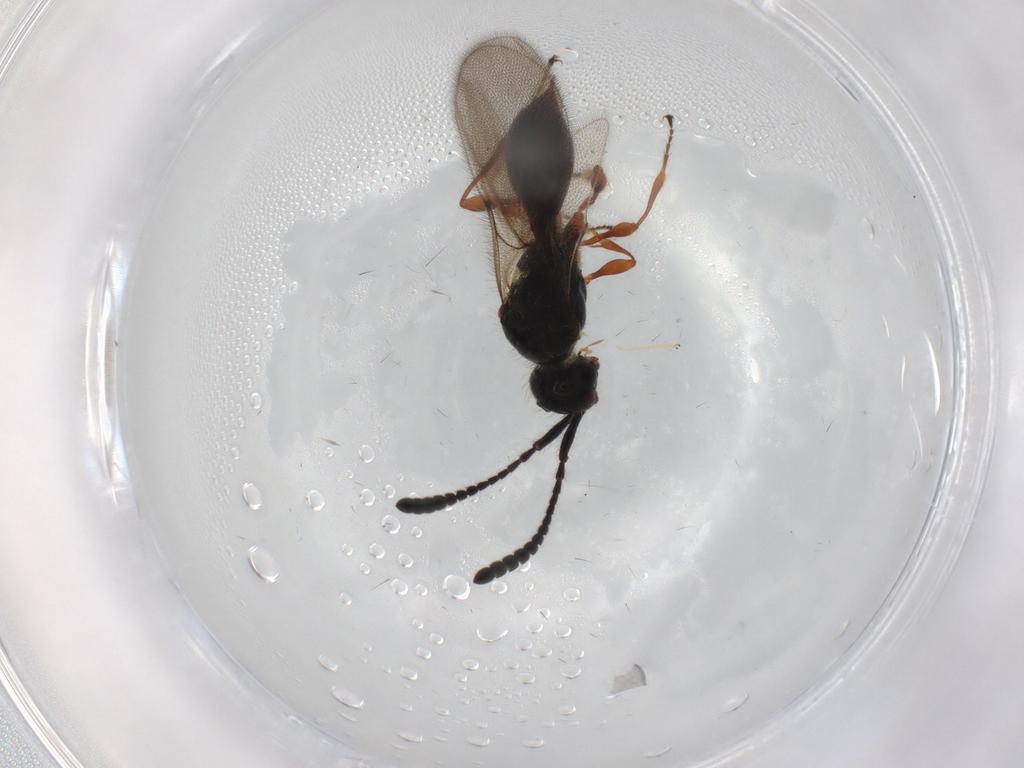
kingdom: Animalia
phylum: Arthropoda
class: Insecta
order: Hymenoptera
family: Diapriidae
